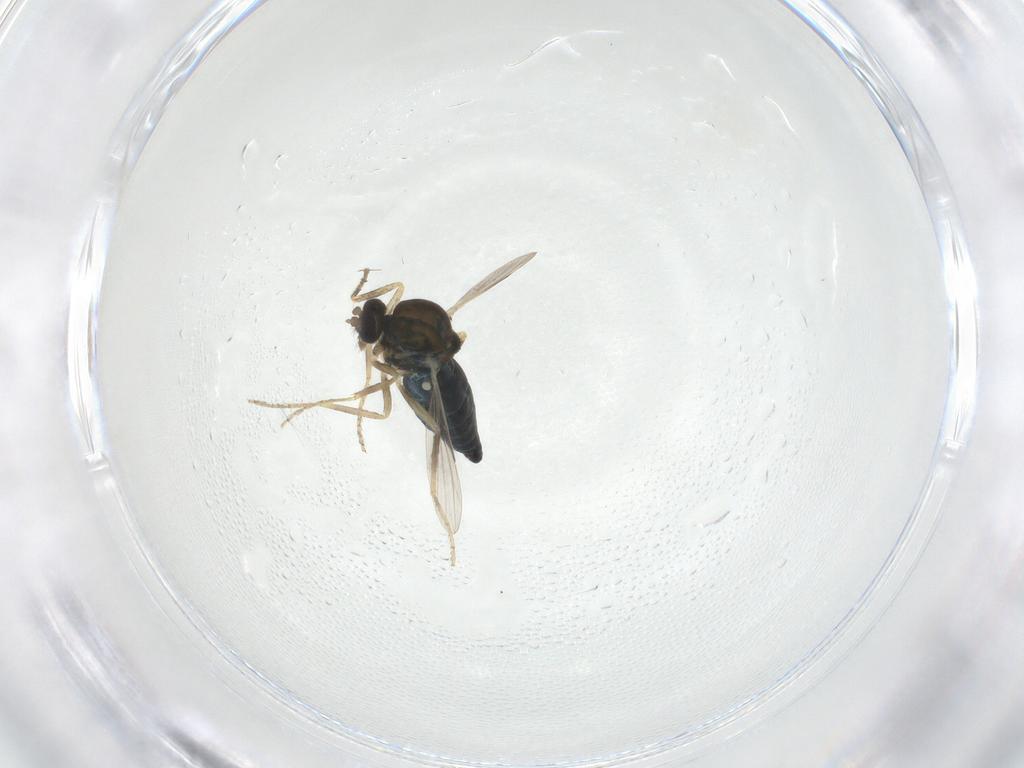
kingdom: Animalia
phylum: Arthropoda
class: Insecta
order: Diptera
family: Ceratopogonidae
